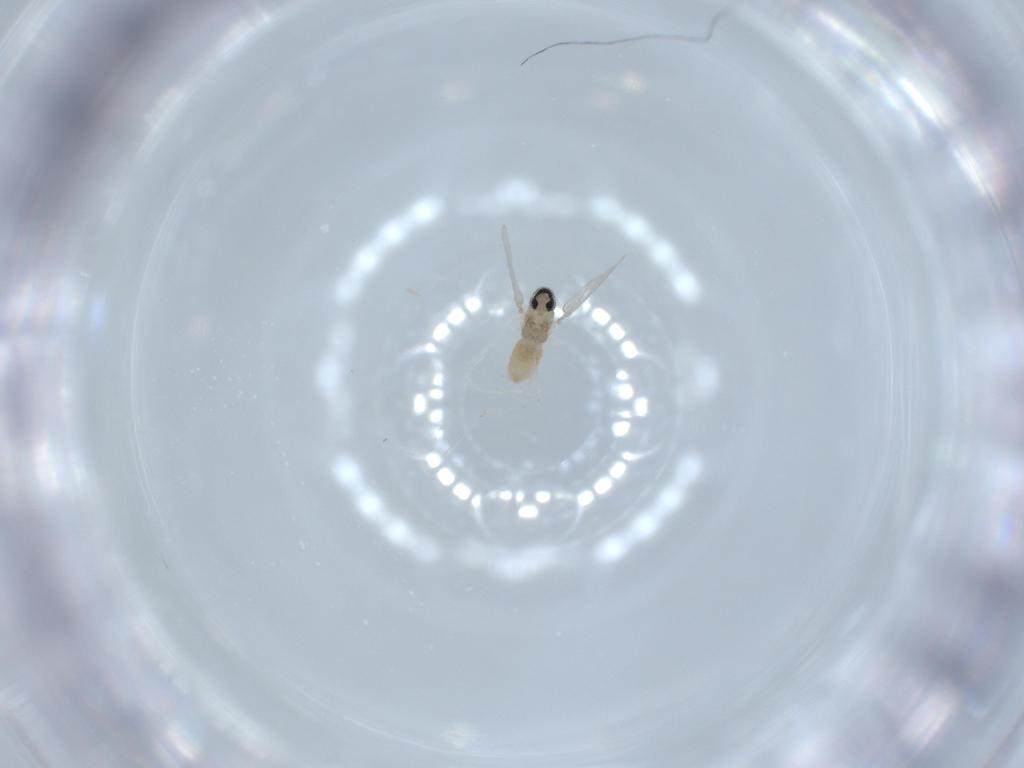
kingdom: Animalia
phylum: Arthropoda
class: Insecta
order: Diptera
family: Cecidomyiidae
